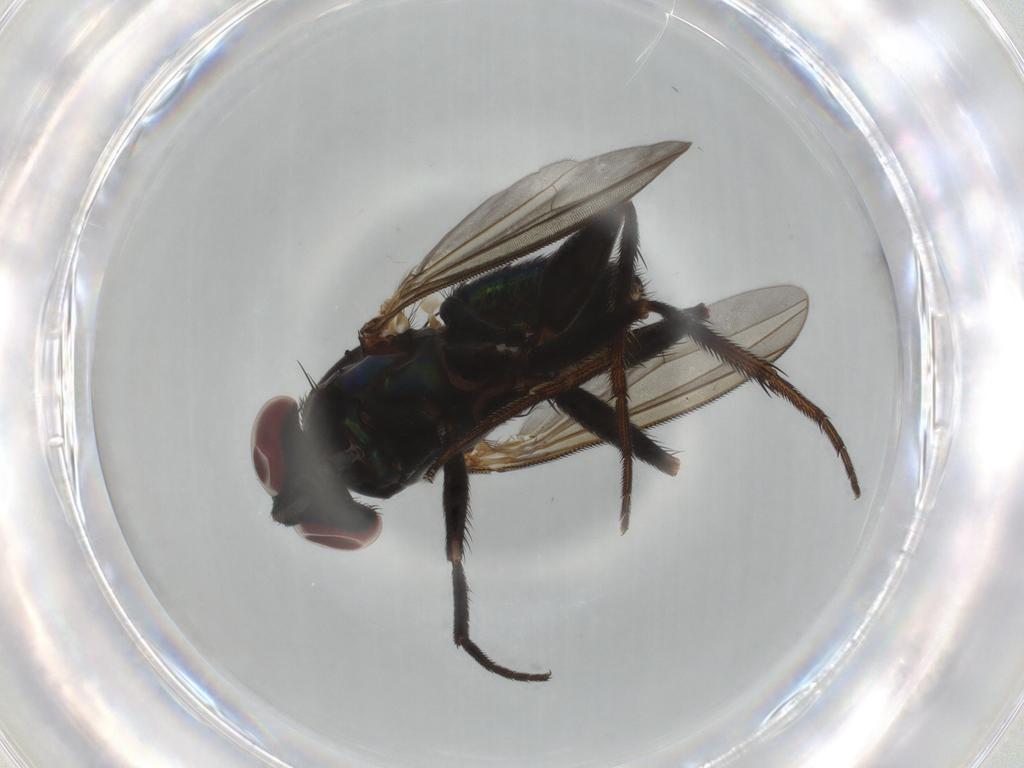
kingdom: Animalia
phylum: Arthropoda
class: Insecta
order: Diptera
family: Dolichopodidae
